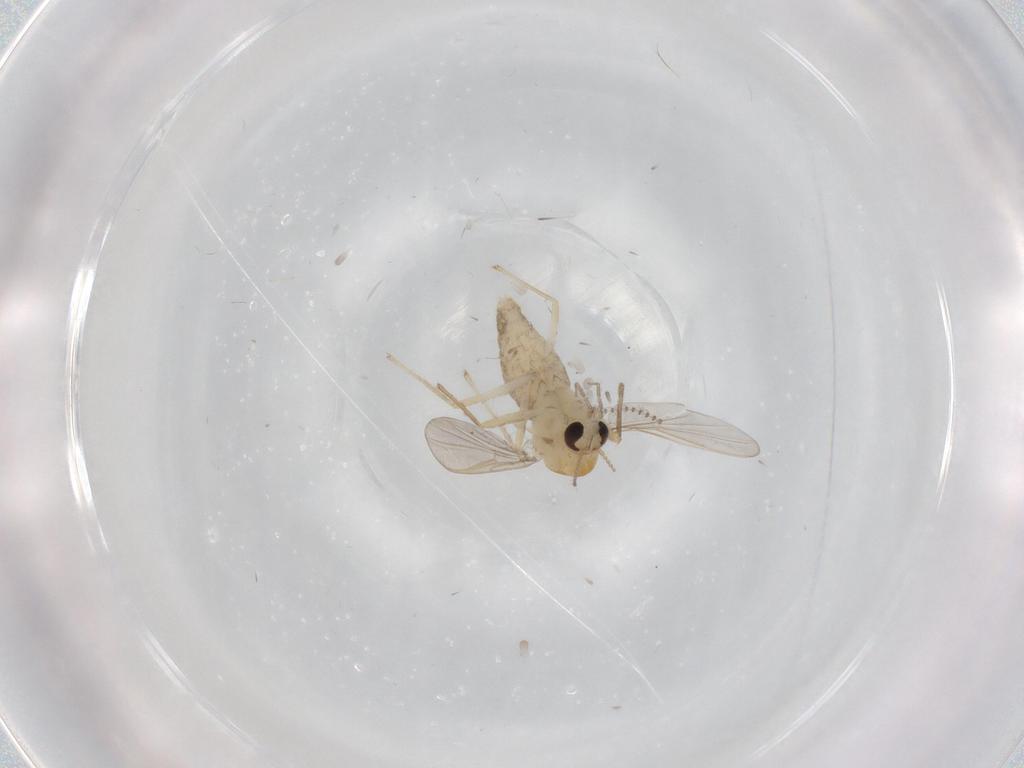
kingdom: Animalia
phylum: Arthropoda
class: Insecta
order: Diptera
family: Chironomidae
